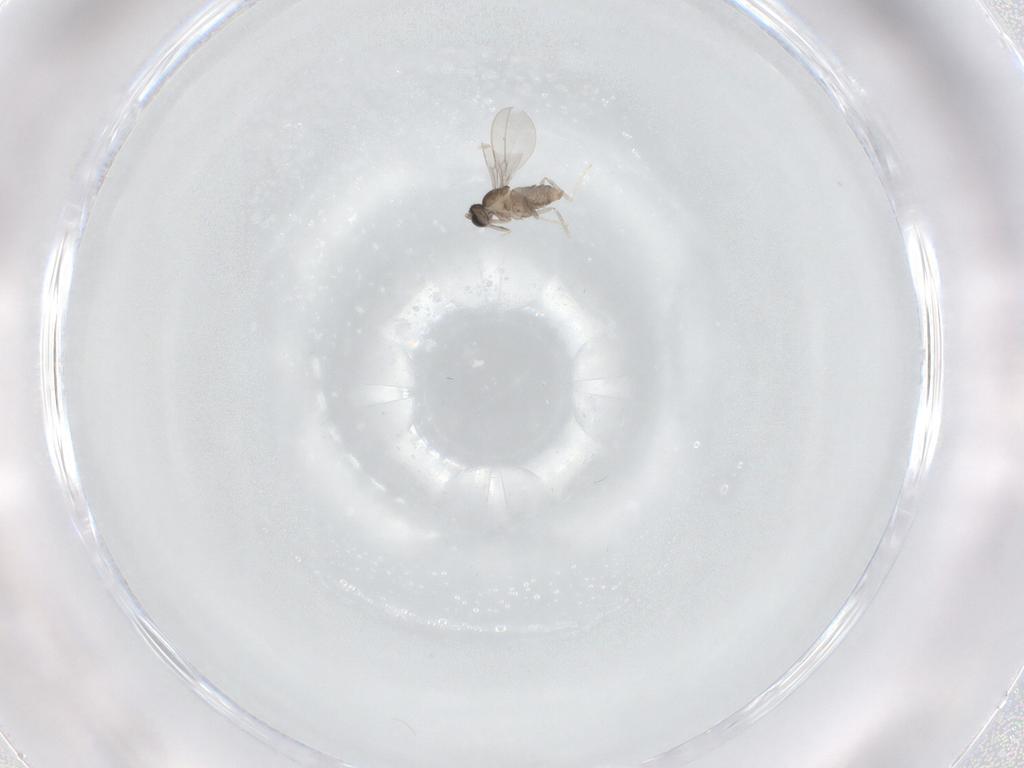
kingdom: Animalia
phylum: Arthropoda
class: Insecta
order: Diptera
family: Cecidomyiidae
